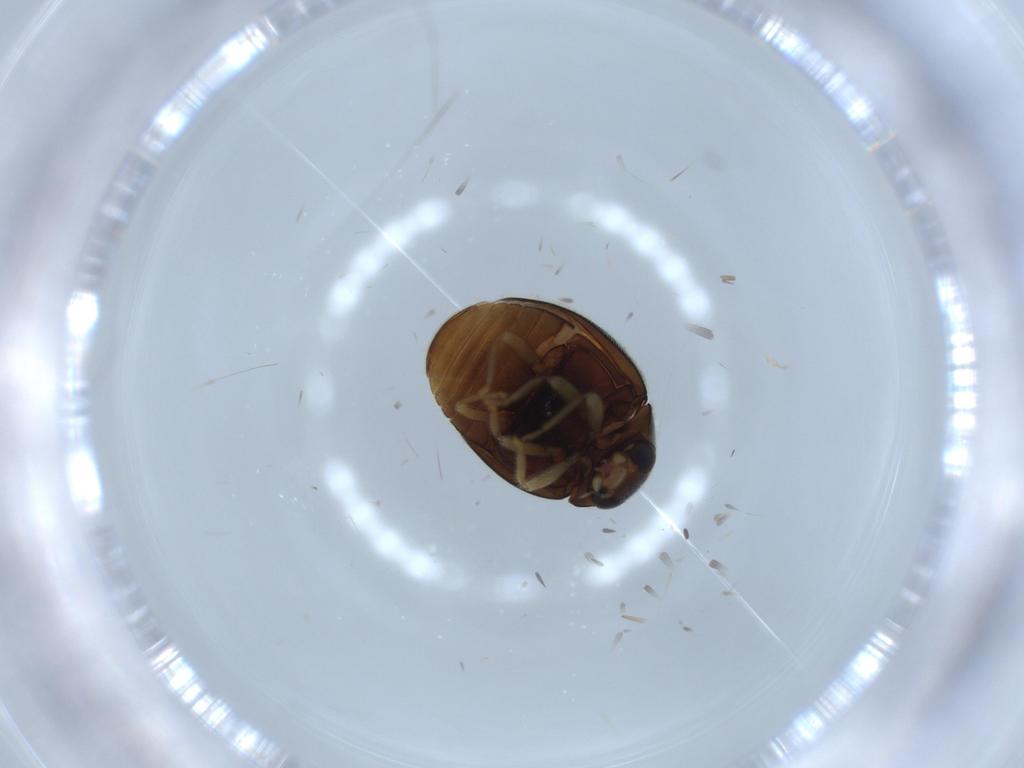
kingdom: Animalia
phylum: Arthropoda
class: Insecta
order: Coleoptera
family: Coccinellidae
